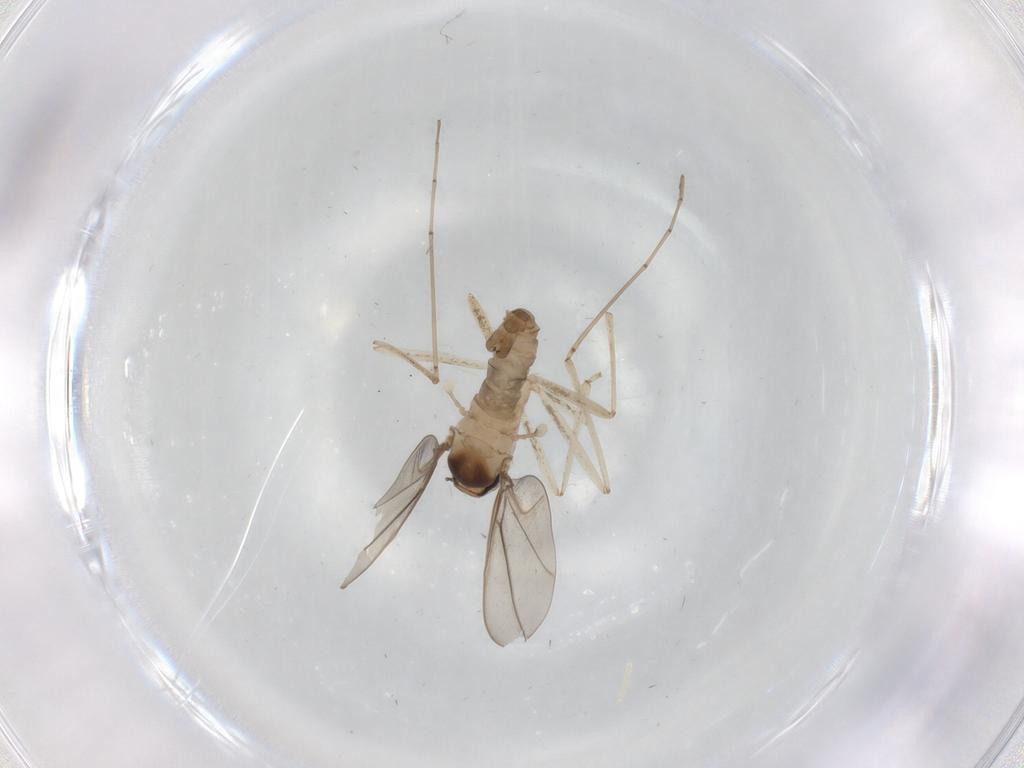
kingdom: Animalia
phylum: Arthropoda
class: Insecta
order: Diptera
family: Cecidomyiidae
